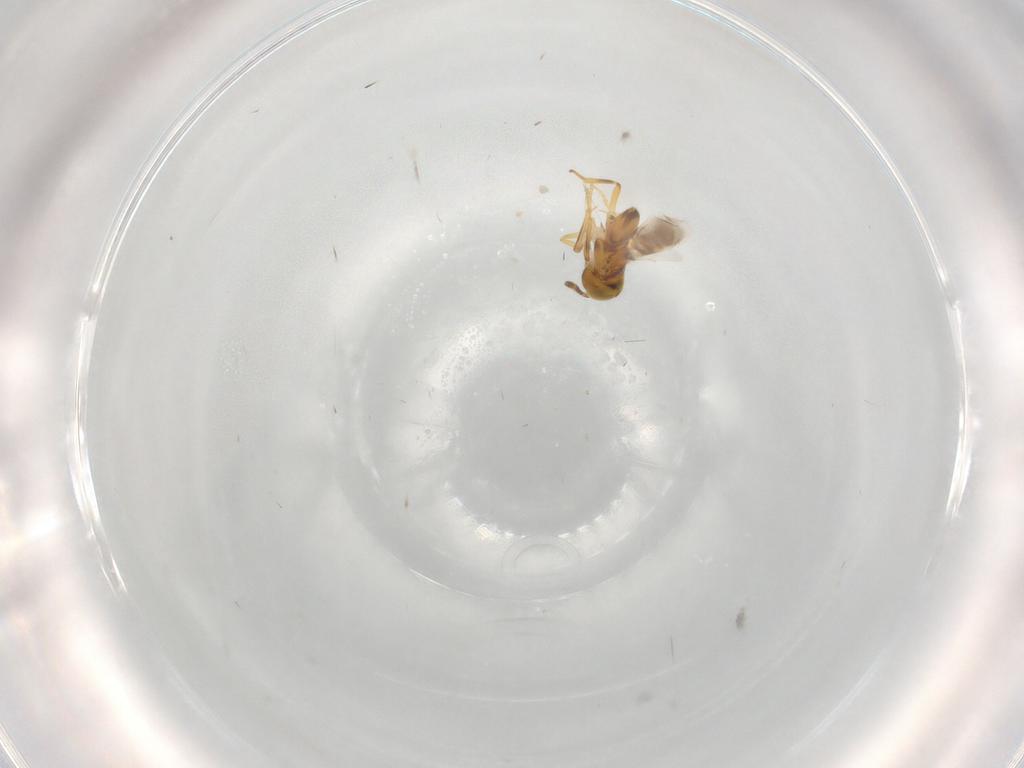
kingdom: Animalia
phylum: Arthropoda
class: Insecta
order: Hymenoptera
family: Encyrtidae
